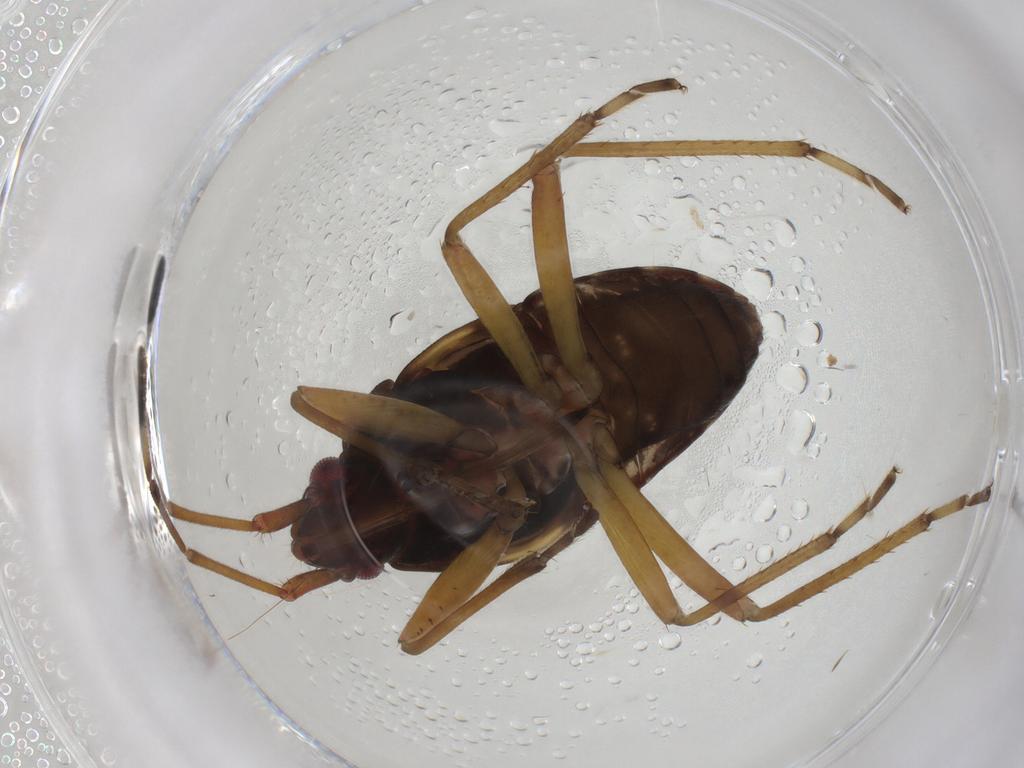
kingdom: Animalia
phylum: Arthropoda
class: Insecta
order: Hemiptera
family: Rhyparochromidae
